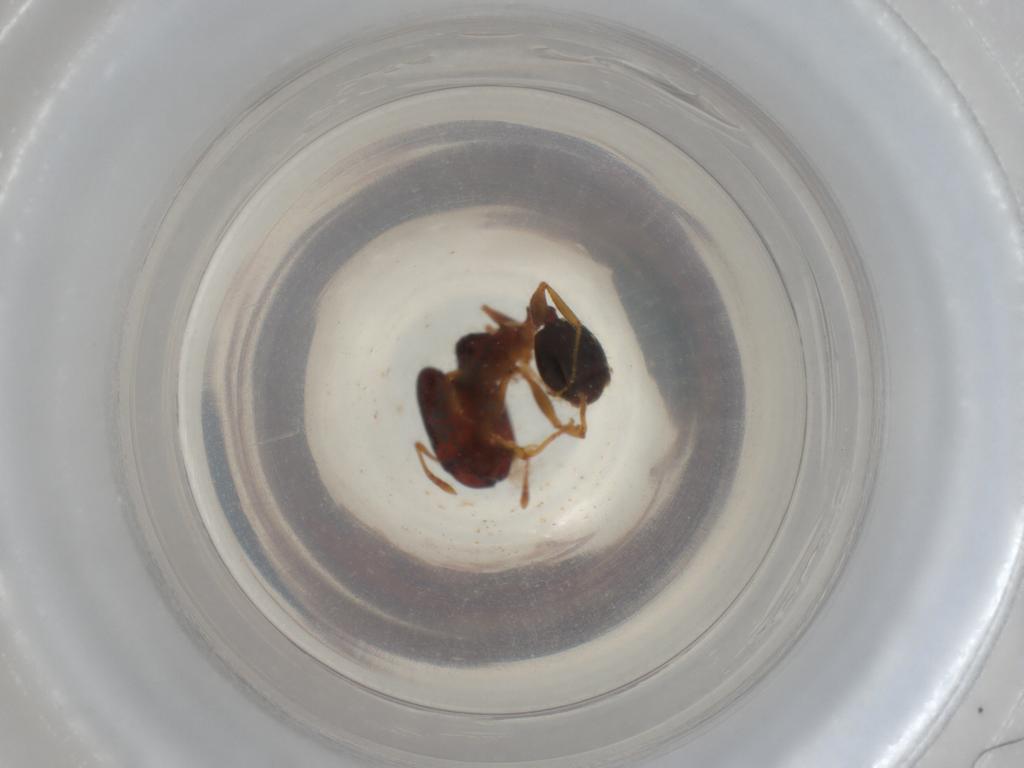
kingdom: Animalia
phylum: Arthropoda
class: Insecta
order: Hymenoptera
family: Formicidae
